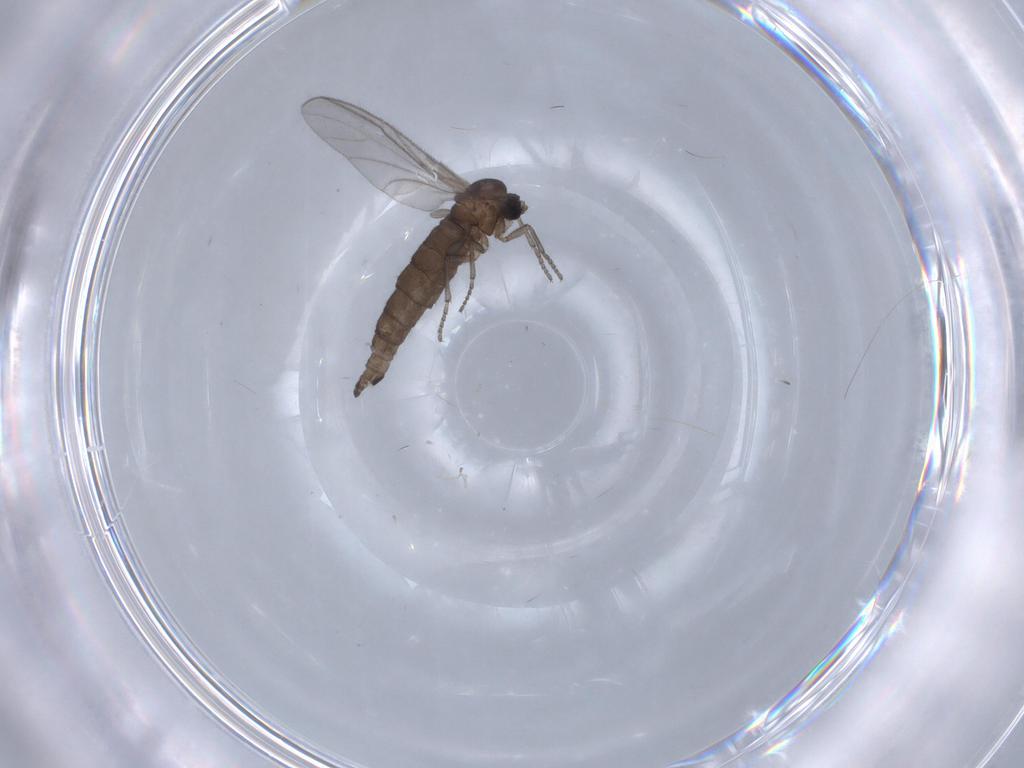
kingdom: Animalia
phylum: Arthropoda
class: Insecta
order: Diptera
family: Sciaridae
